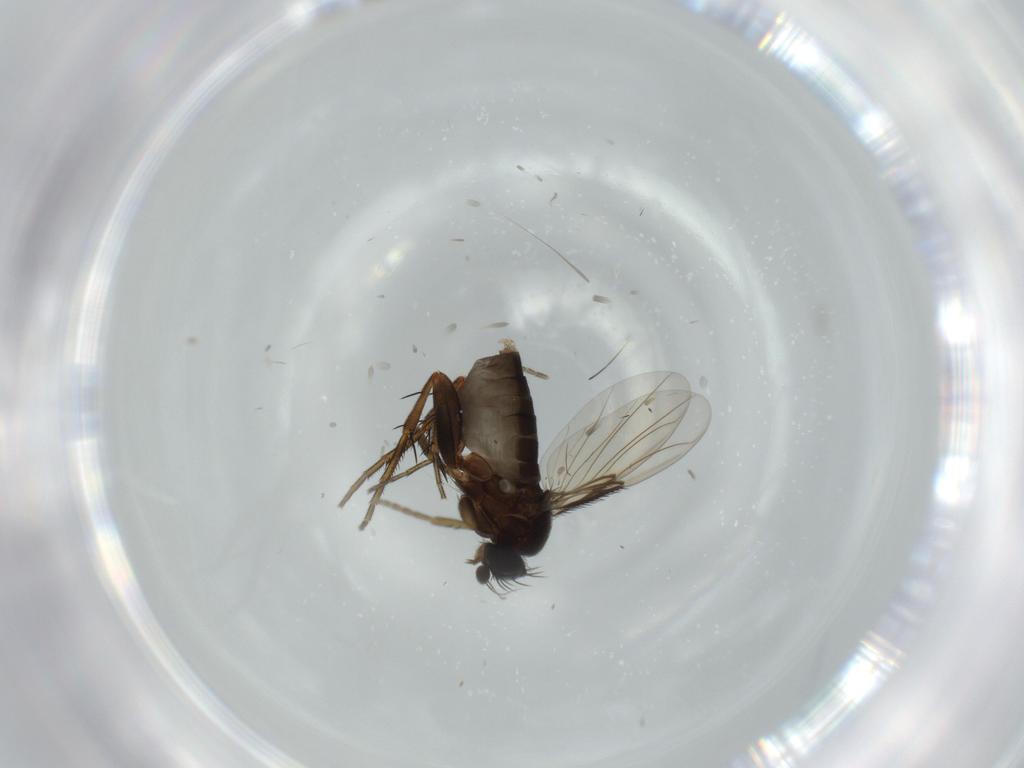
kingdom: Animalia
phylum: Arthropoda
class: Insecta
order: Diptera
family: Phoridae
